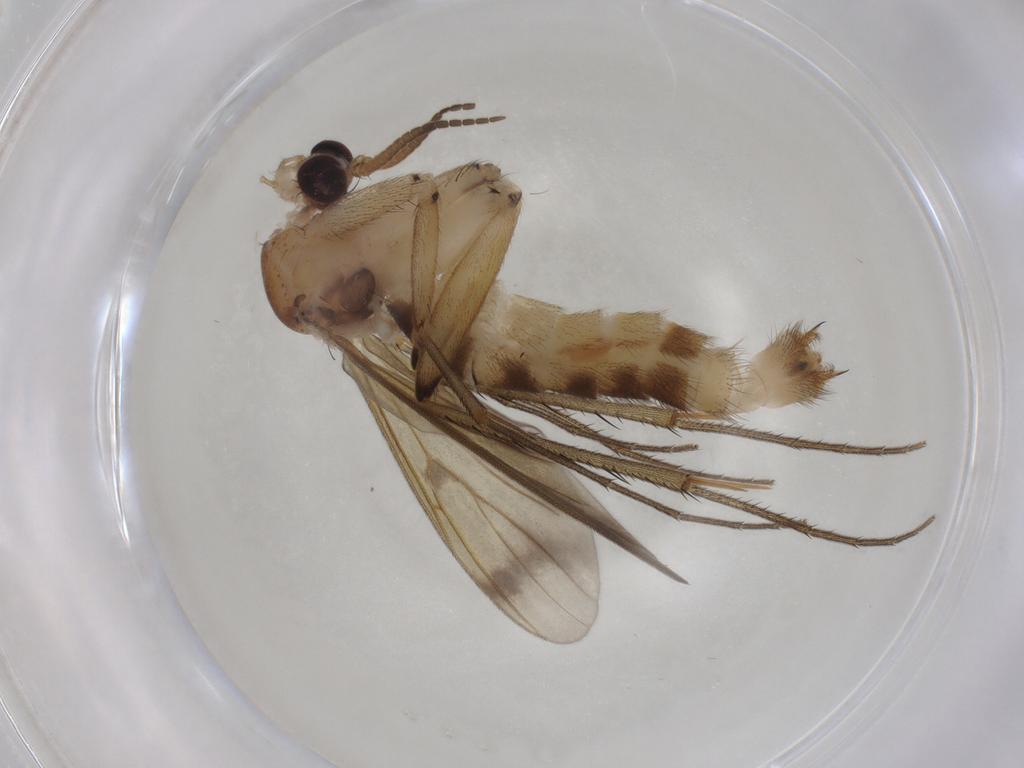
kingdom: Animalia
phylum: Arthropoda
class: Insecta
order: Diptera
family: Mycetophilidae
